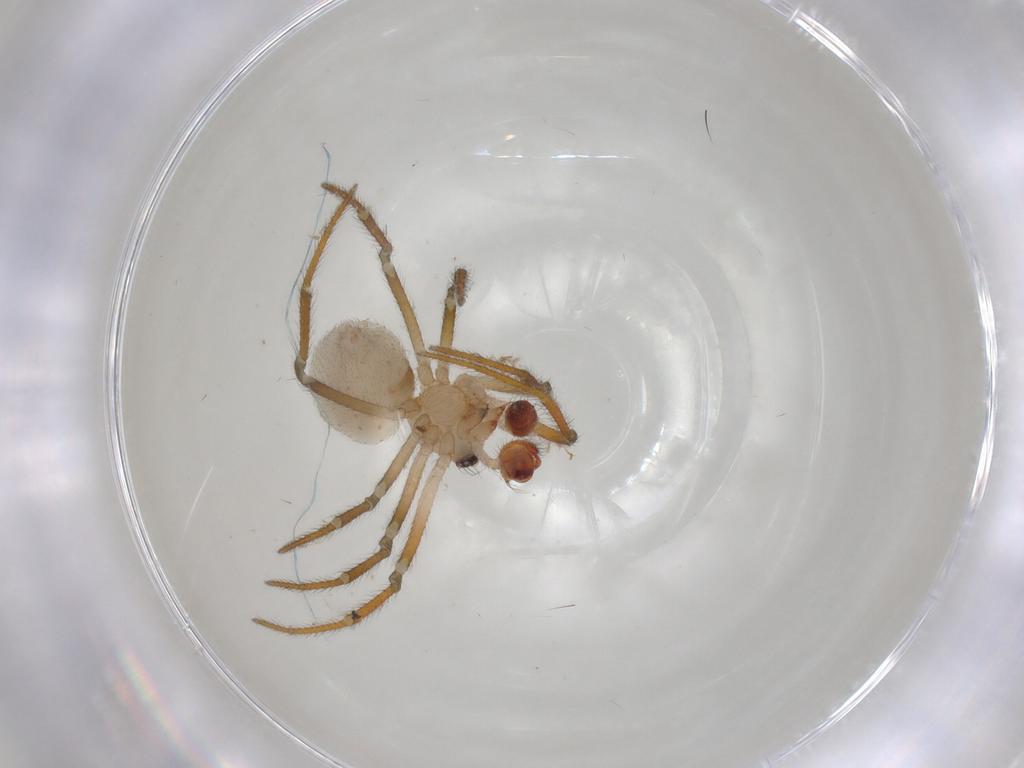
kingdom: Animalia
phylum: Arthropoda
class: Arachnida
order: Araneae
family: Theridiidae
